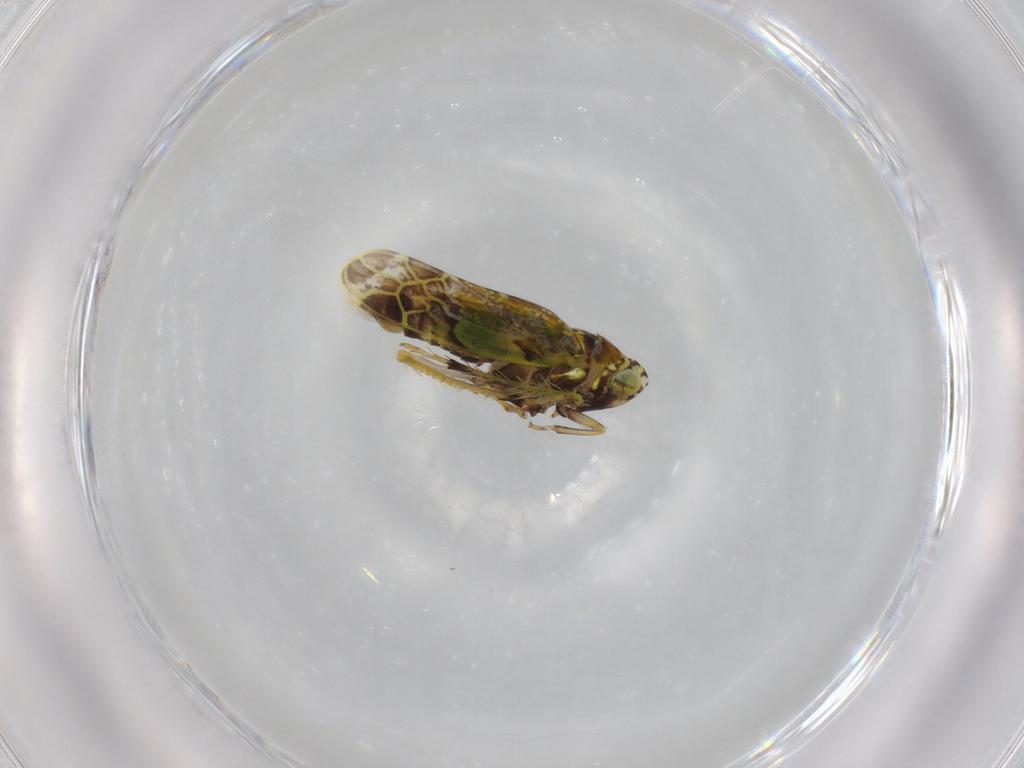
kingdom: Animalia
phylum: Arthropoda
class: Insecta
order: Hemiptera
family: Cicadellidae
